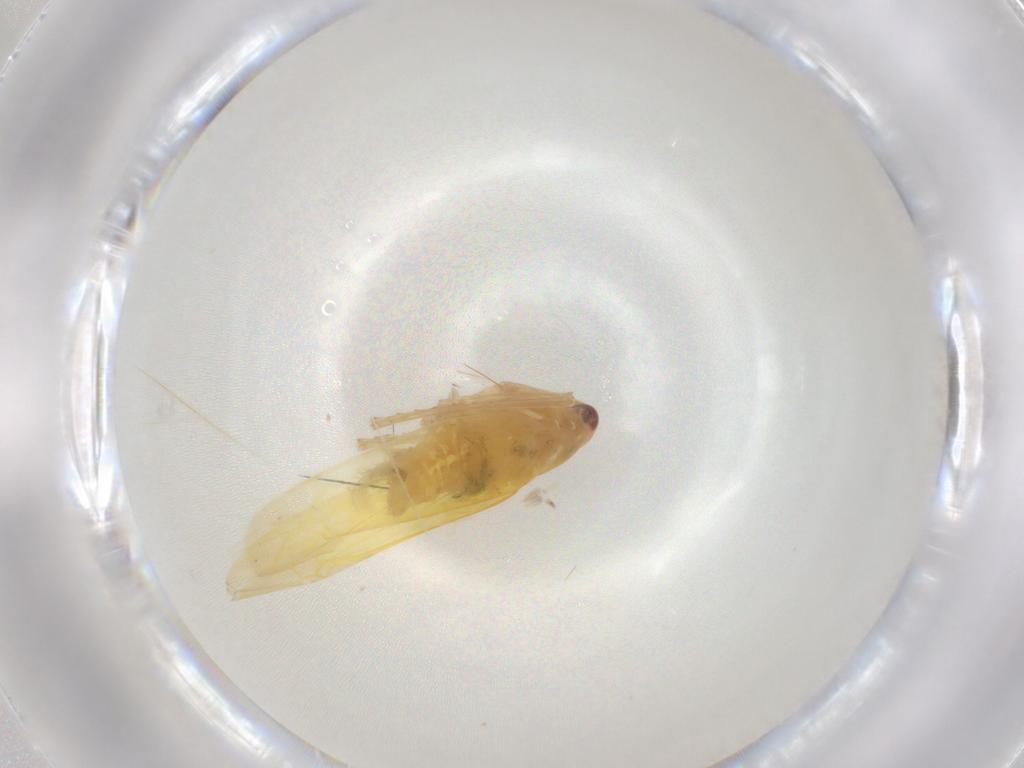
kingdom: Animalia
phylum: Arthropoda
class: Insecta
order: Hemiptera
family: Cicadellidae
